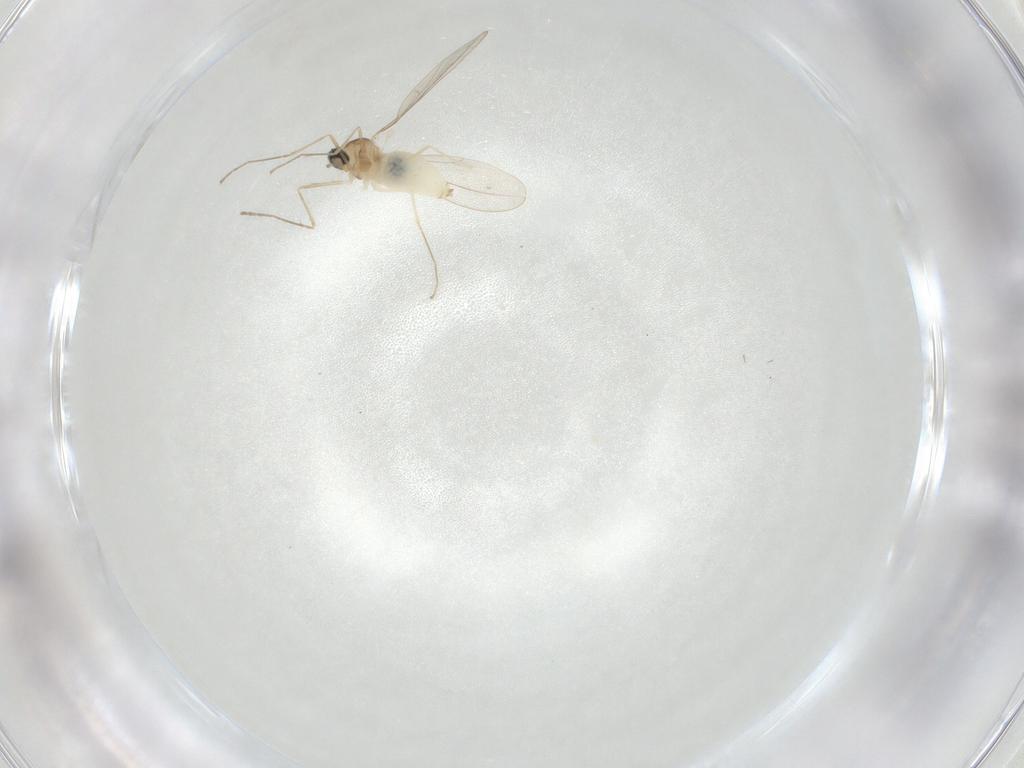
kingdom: Animalia
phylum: Arthropoda
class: Insecta
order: Diptera
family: Cecidomyiidae
